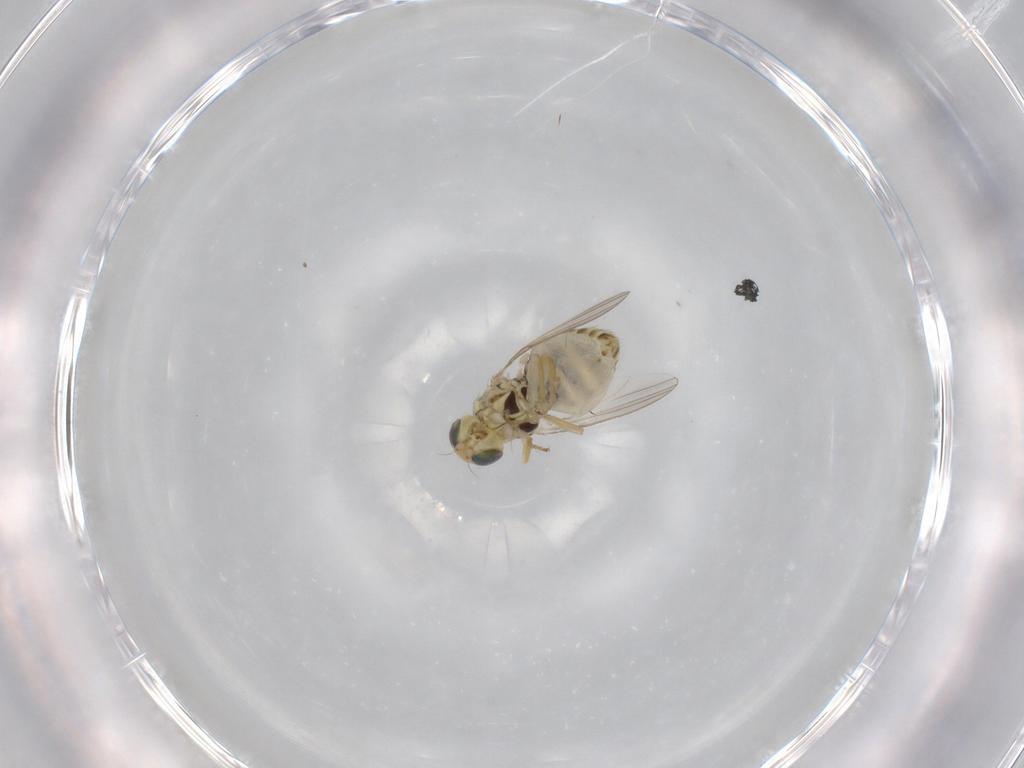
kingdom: Animalia
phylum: Arthropoda
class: Insecta
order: Diptera
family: Chyromyidae
